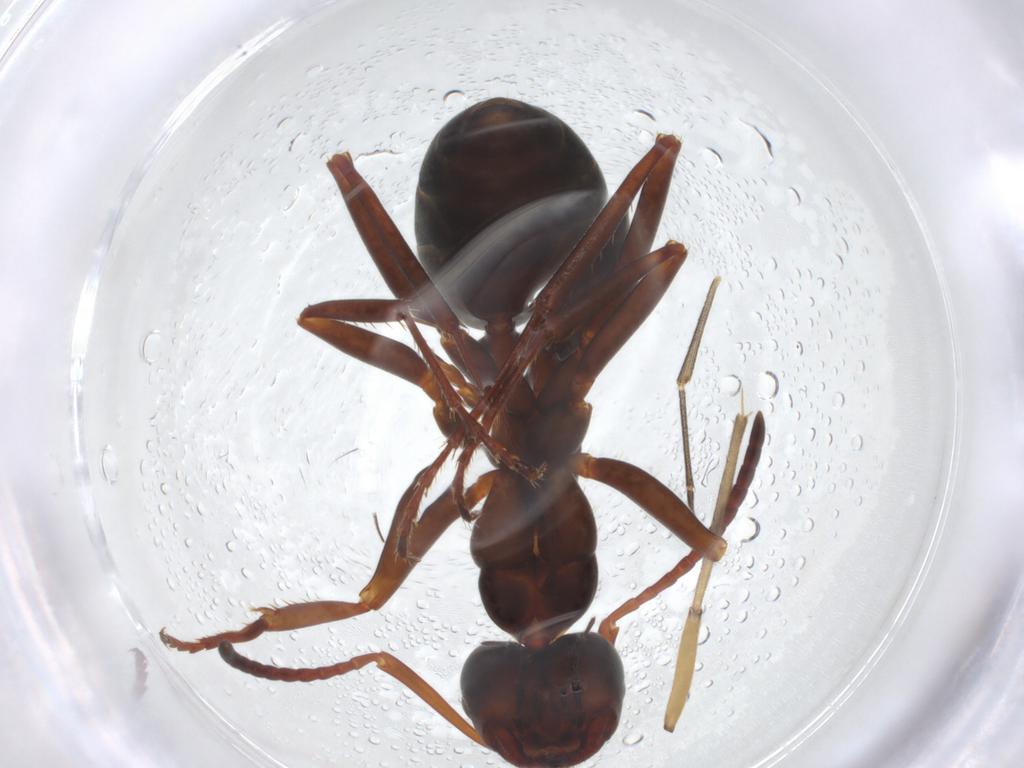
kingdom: Animalia
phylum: Arthropoda
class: Insecta
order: Hymenoptera
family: Formicidae
